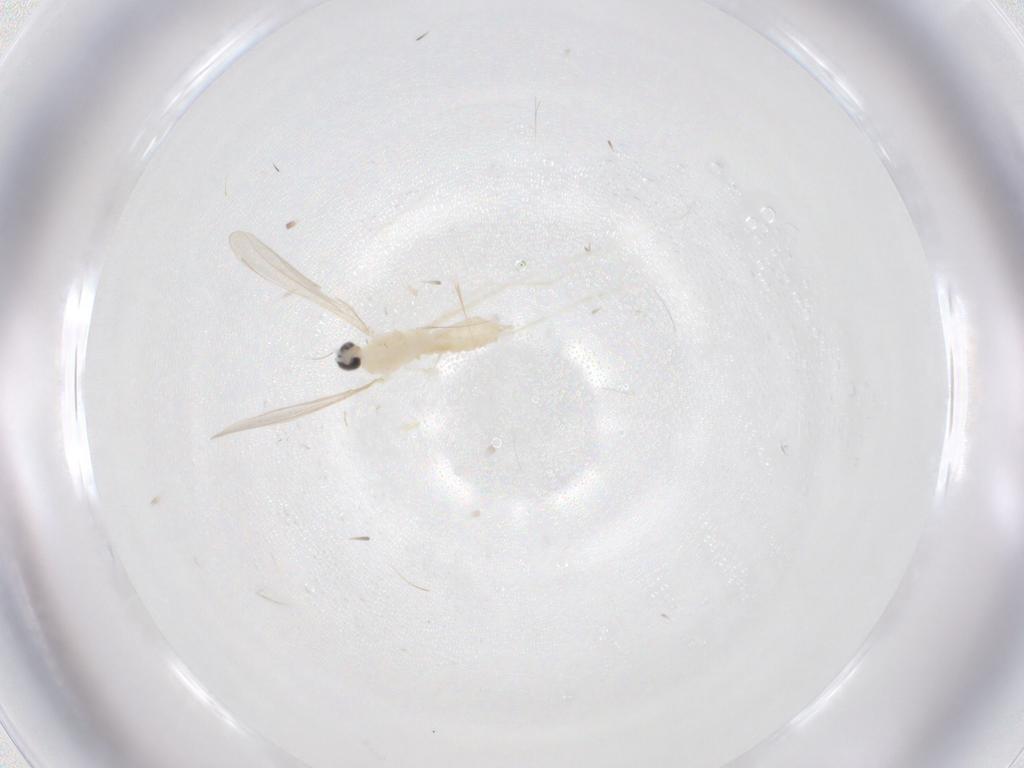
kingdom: Animalia
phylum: Arthropoda
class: Insecta
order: Diptera
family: Cecidomyiidae
